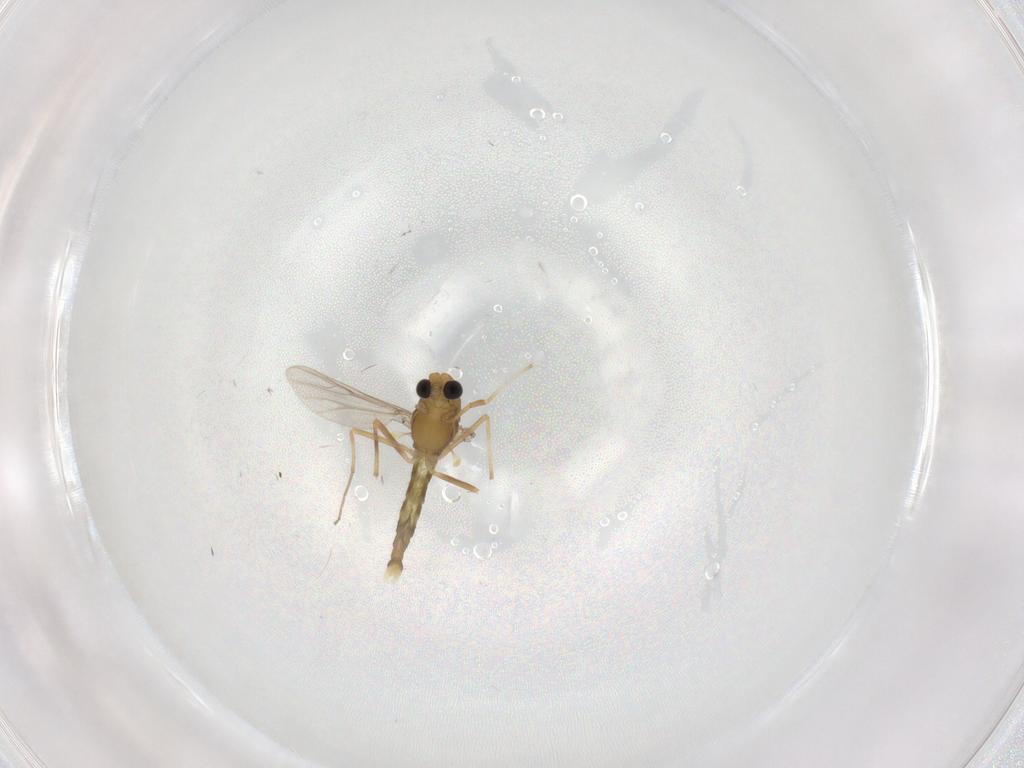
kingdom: Animalia
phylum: Arthropoda
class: Insecta
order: Diptera
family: Chironomidae
